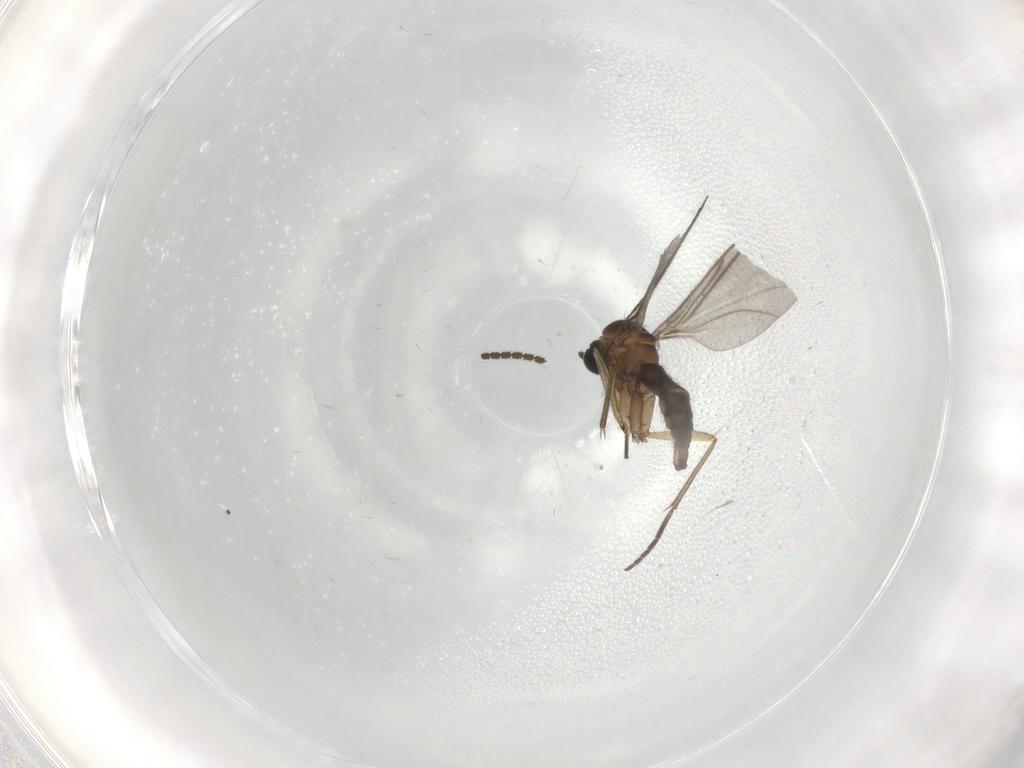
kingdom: Animalia
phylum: Arthropoda
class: Insecta
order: Diptera
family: Sciaridae
